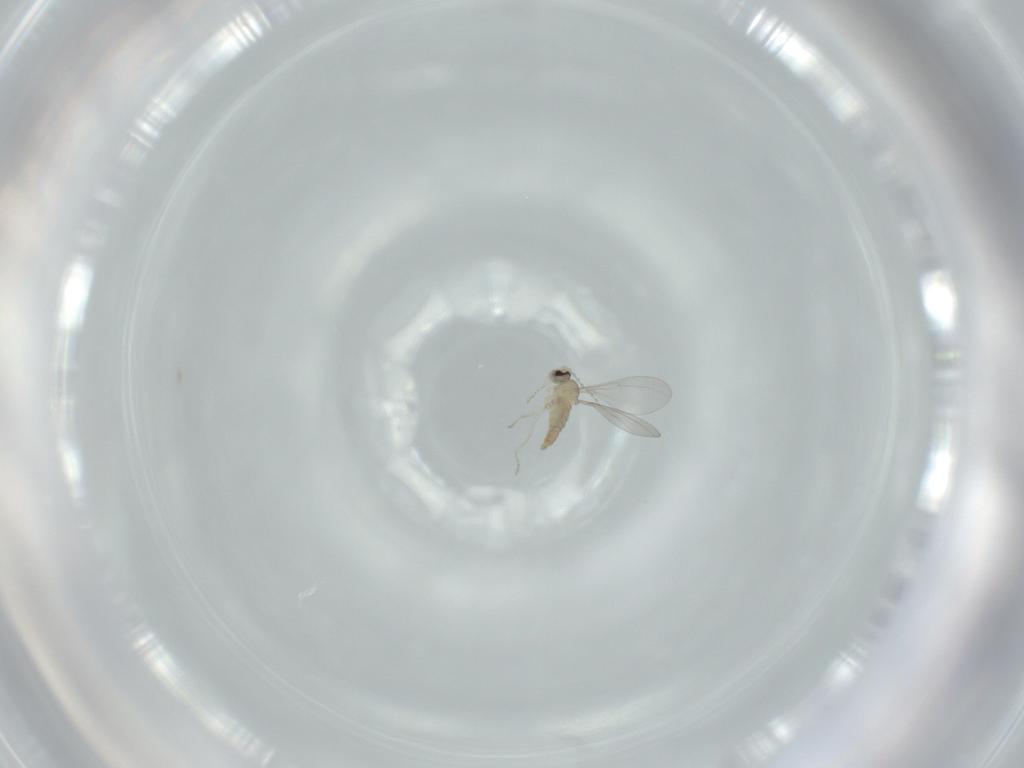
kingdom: Animalia
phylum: Arthropoda
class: Insecta
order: Diptera
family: Cecidomyiidae
